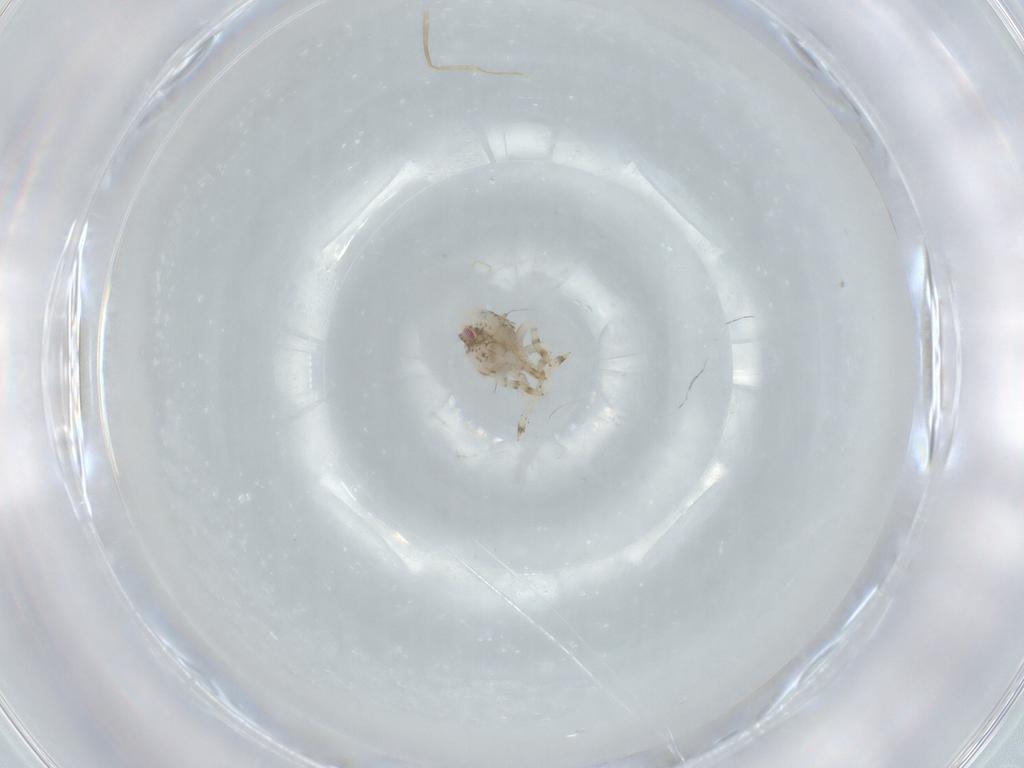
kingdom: Animalia
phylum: Arthropoda
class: Insecta
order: Hemiptera
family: Acanaloniidae
